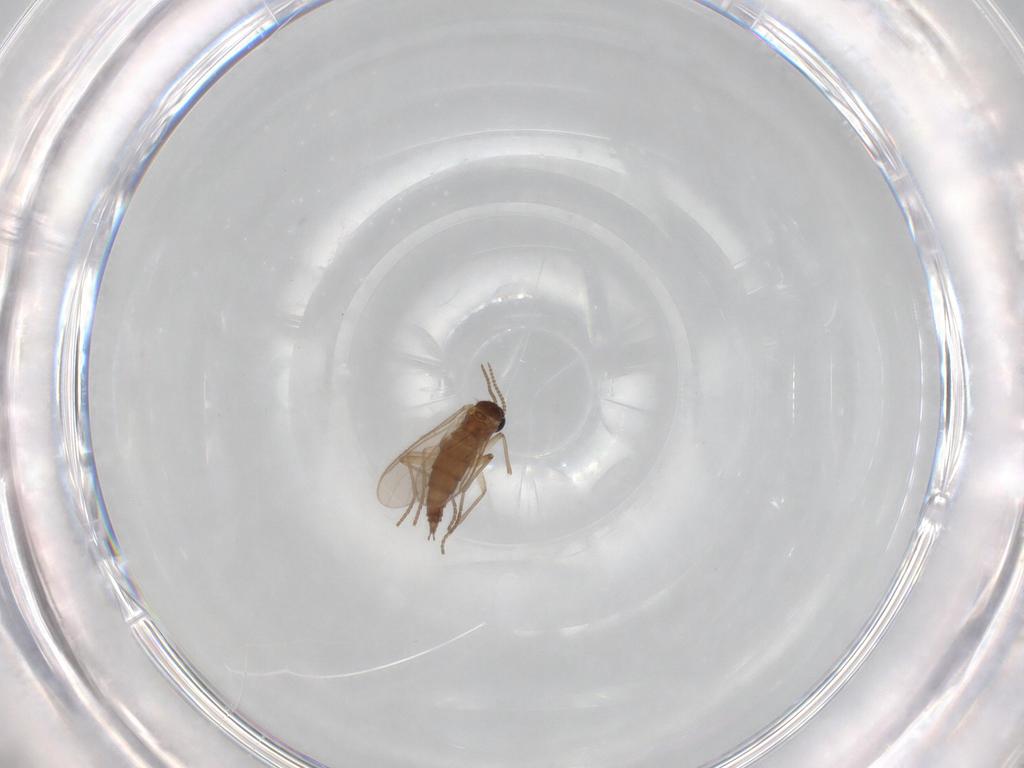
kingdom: Animalia
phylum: Arthropoda
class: Insecta
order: Diptera
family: Sciaridae
